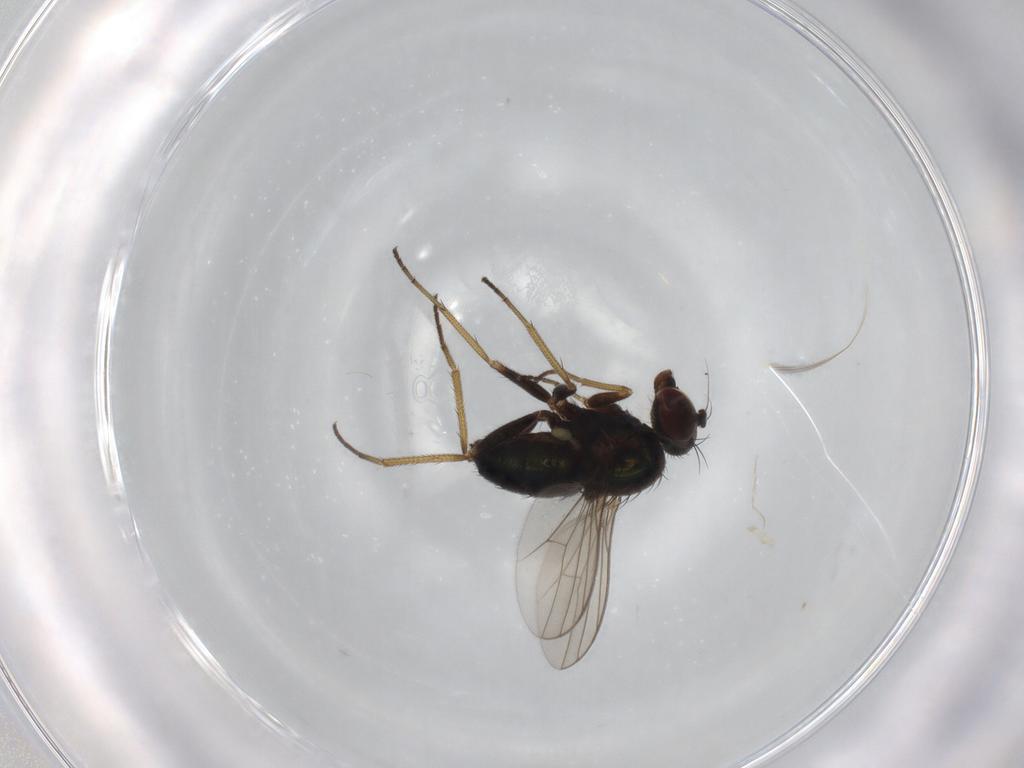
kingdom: Animalia
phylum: Arthropoda
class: Insecta
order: Diptera
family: Dolichopodidae
